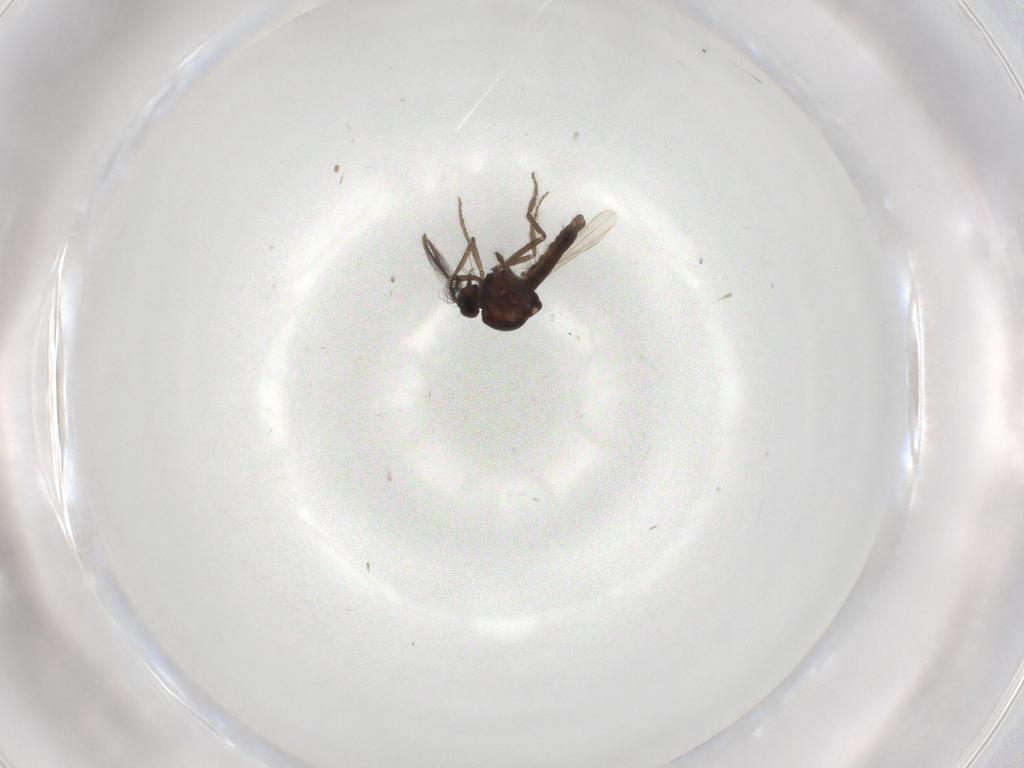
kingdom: Animalia
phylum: Arthropoda
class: Insecta
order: Diptera
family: Ceratopogonidae
